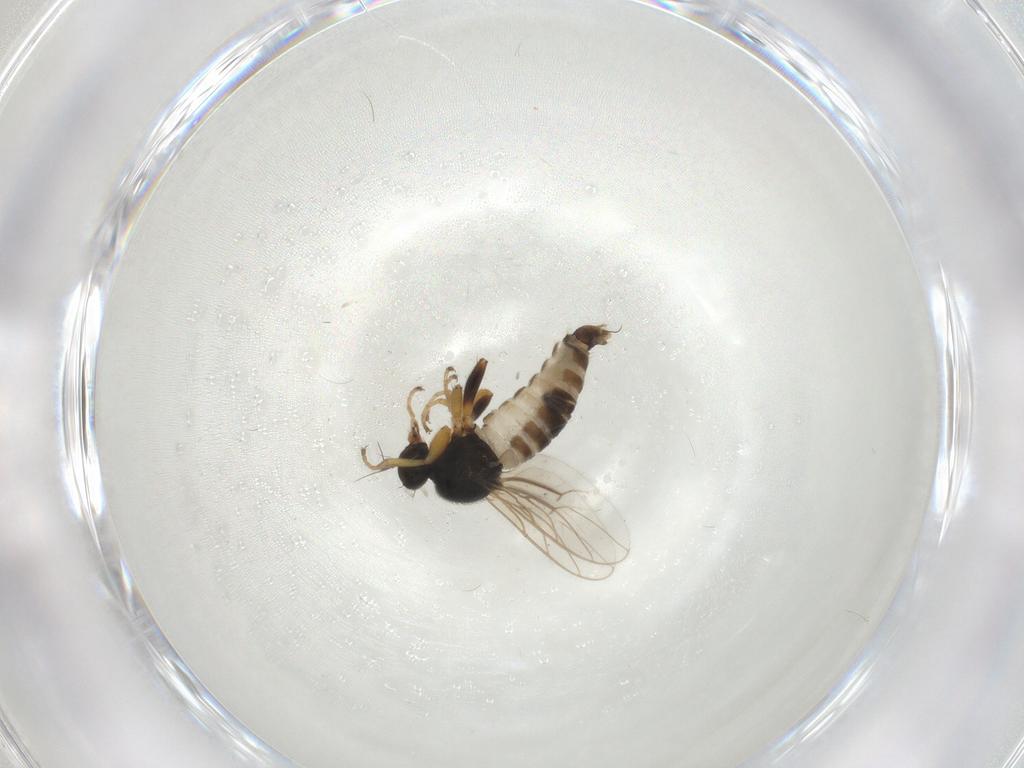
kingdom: Animalia
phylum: Arthropoda
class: Insecta
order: Diptera
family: Hybotidae
